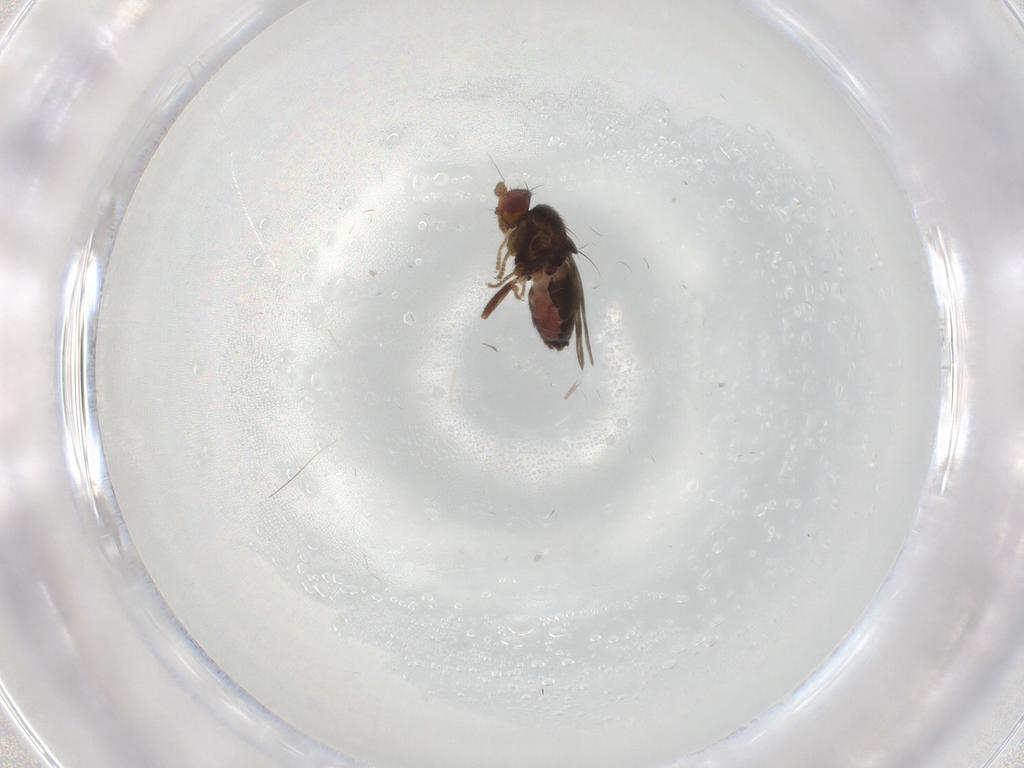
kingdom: Animalia
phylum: Arthropoda
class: Insecta
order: Diptera
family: Sphaeroceridae
